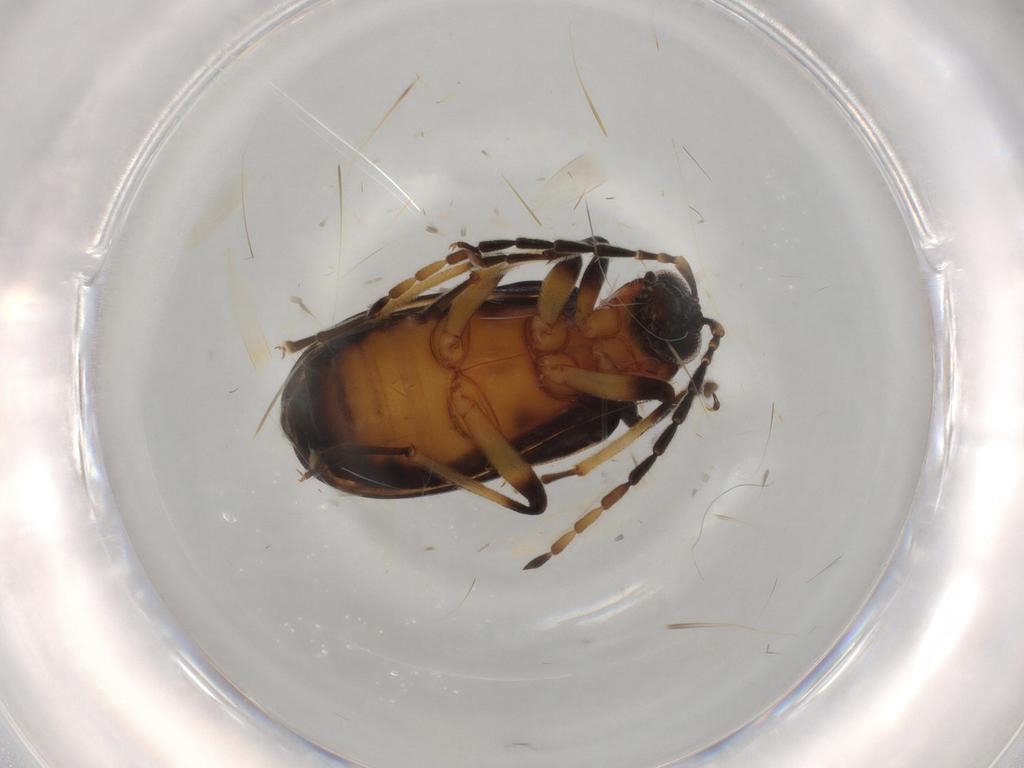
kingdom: Animalia
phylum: Arthropoda
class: Insecta
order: Coleoptera
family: Chrysomelidae
